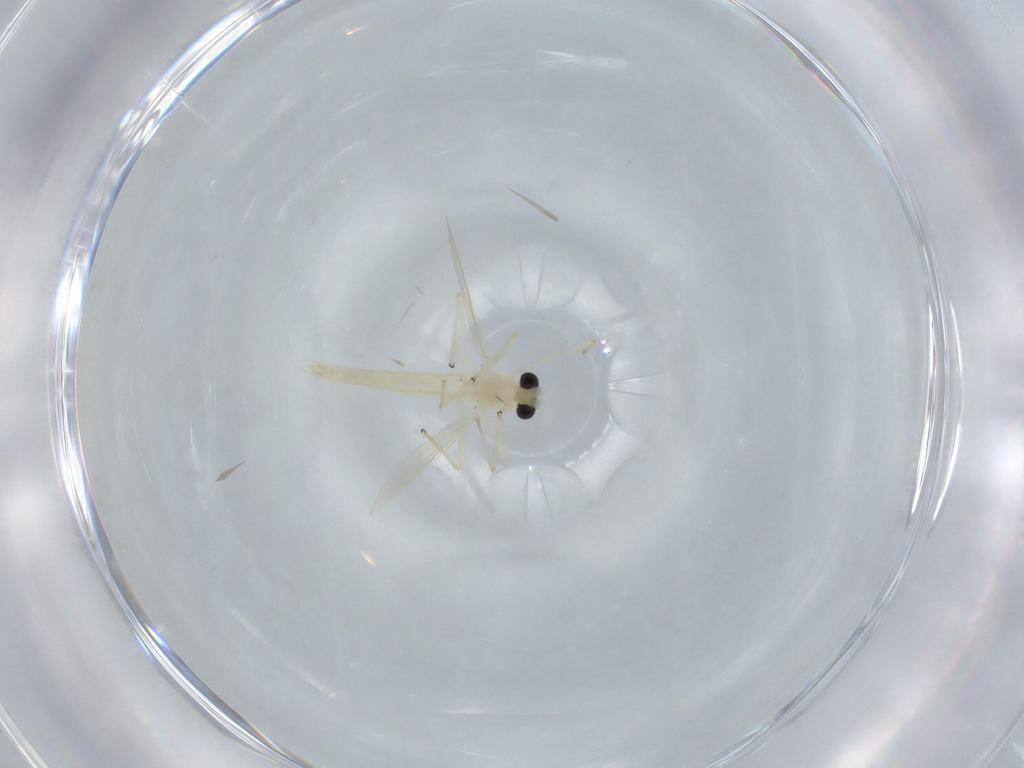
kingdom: Animalia
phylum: Arthropoda
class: Insecta
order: Diptera
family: Chironomidae
